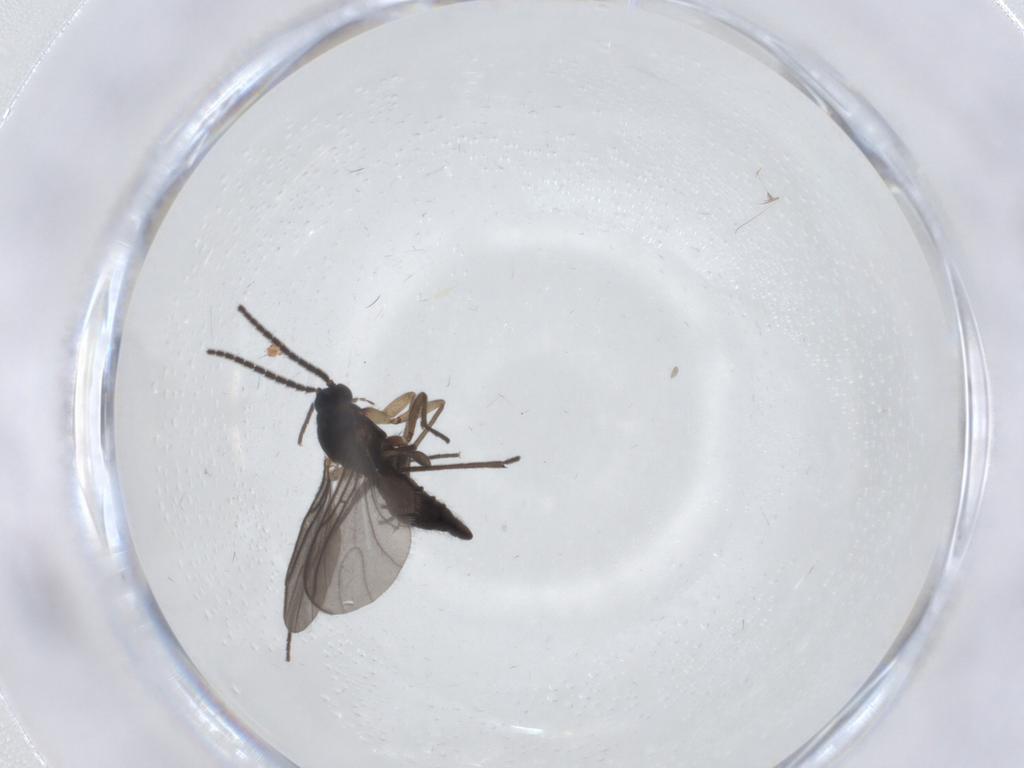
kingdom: Animalia
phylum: Arthropoda
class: Insecta
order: Diptera
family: Sciaridae
